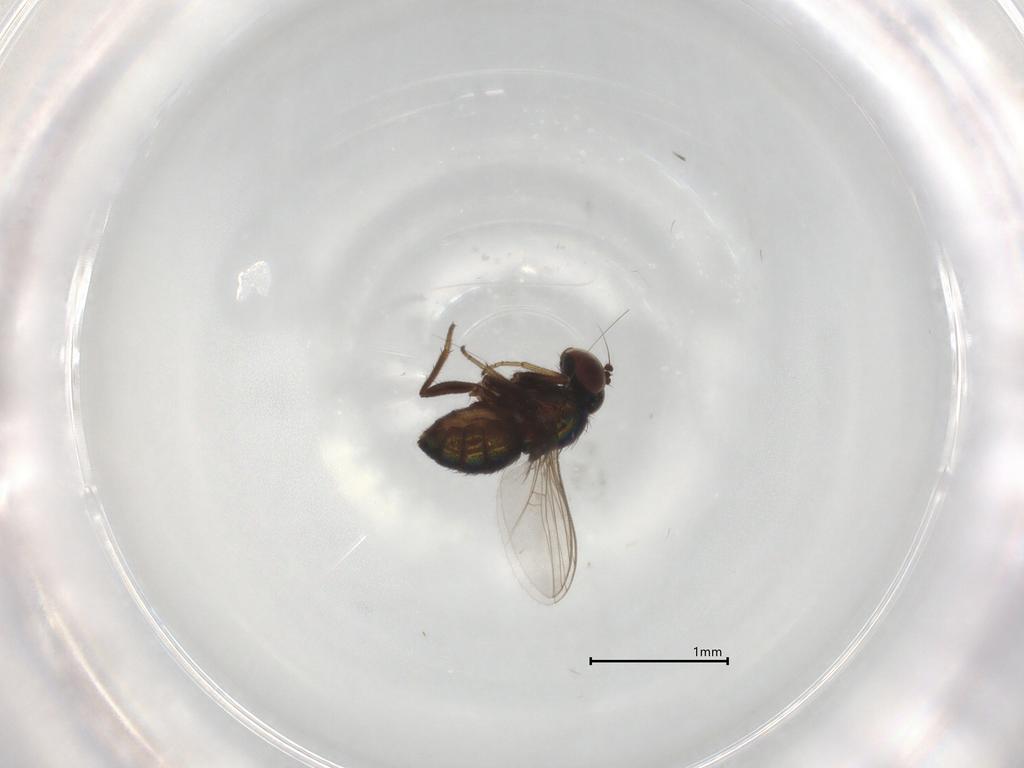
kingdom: Animalia
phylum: Arthropoda
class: Insecta
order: Diptera
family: Dolichopodidae
